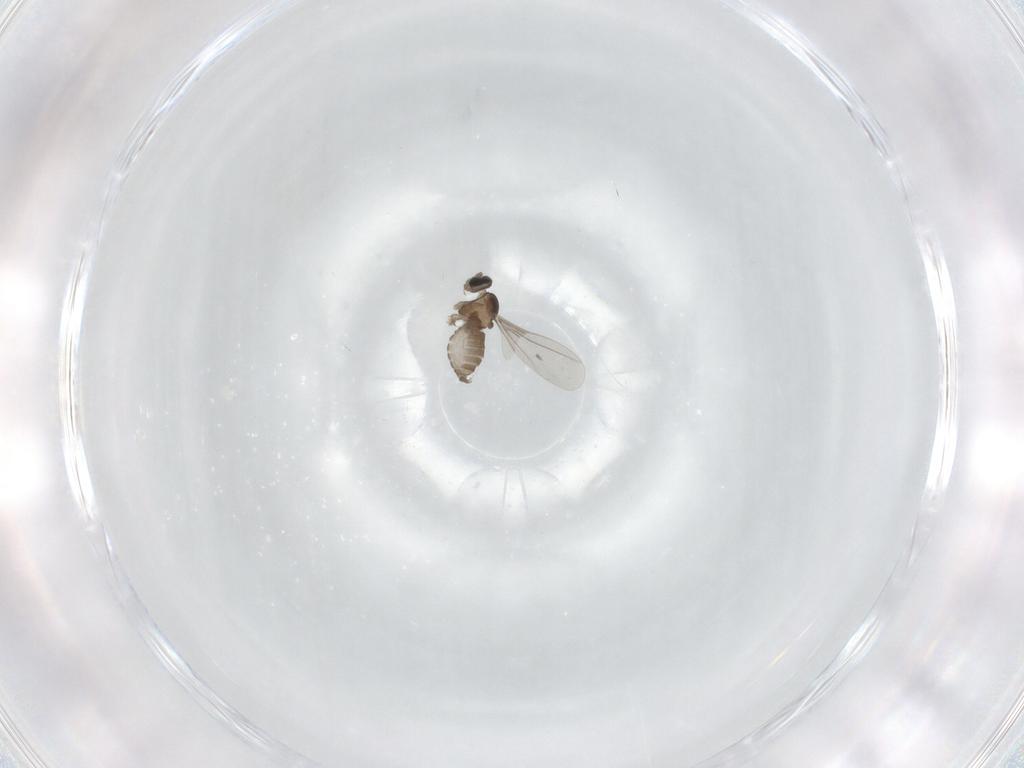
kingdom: Animalia
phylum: Arthropoda
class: Insecta
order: Diptera
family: Cecidomyiidae
